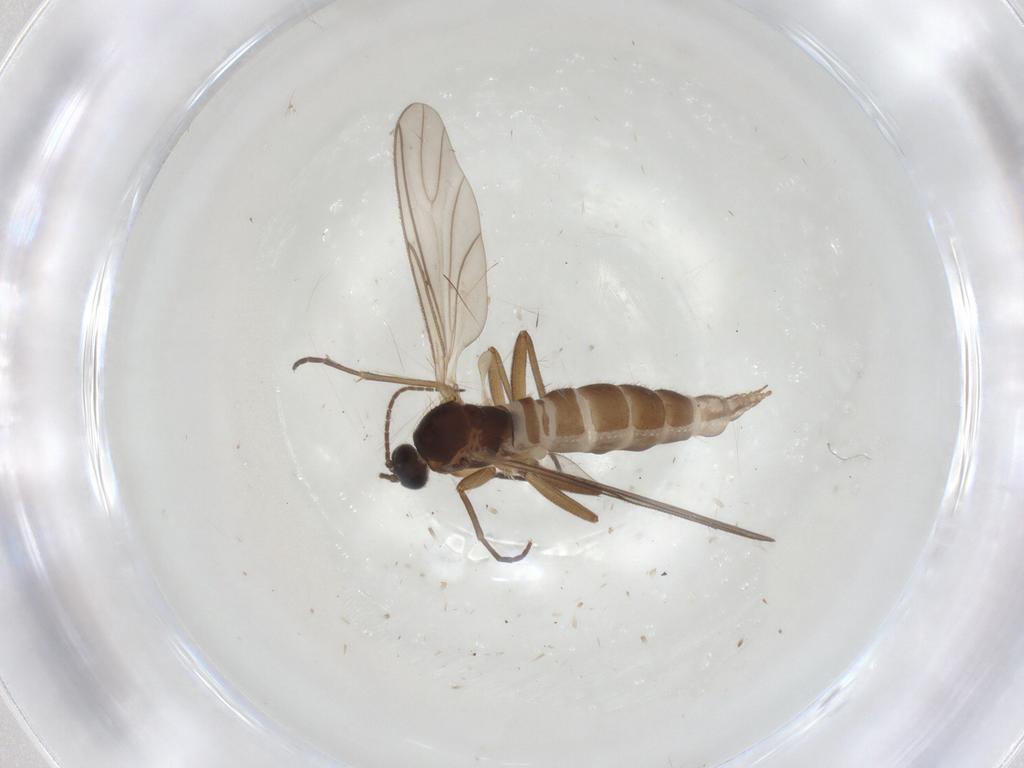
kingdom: Animalia
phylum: Arthropoda
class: Insecta
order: Diptera
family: Sciaridae
